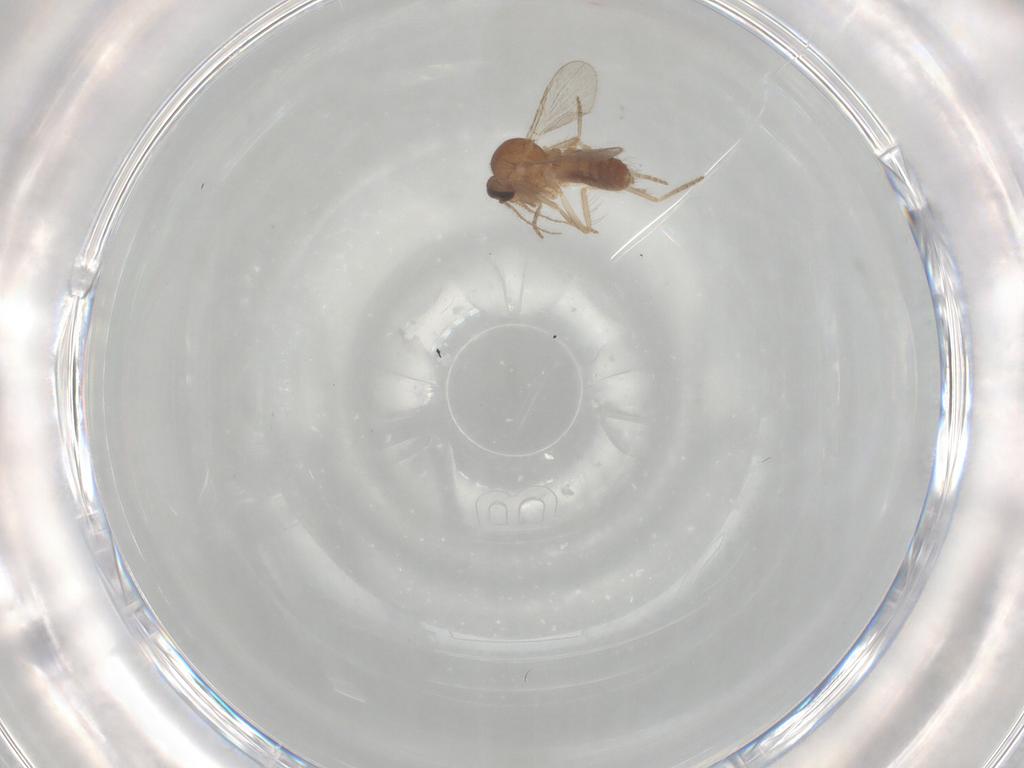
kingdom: Animalia
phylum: Arthropoda
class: Insecta
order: Diptera
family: Ceratopogonidae
